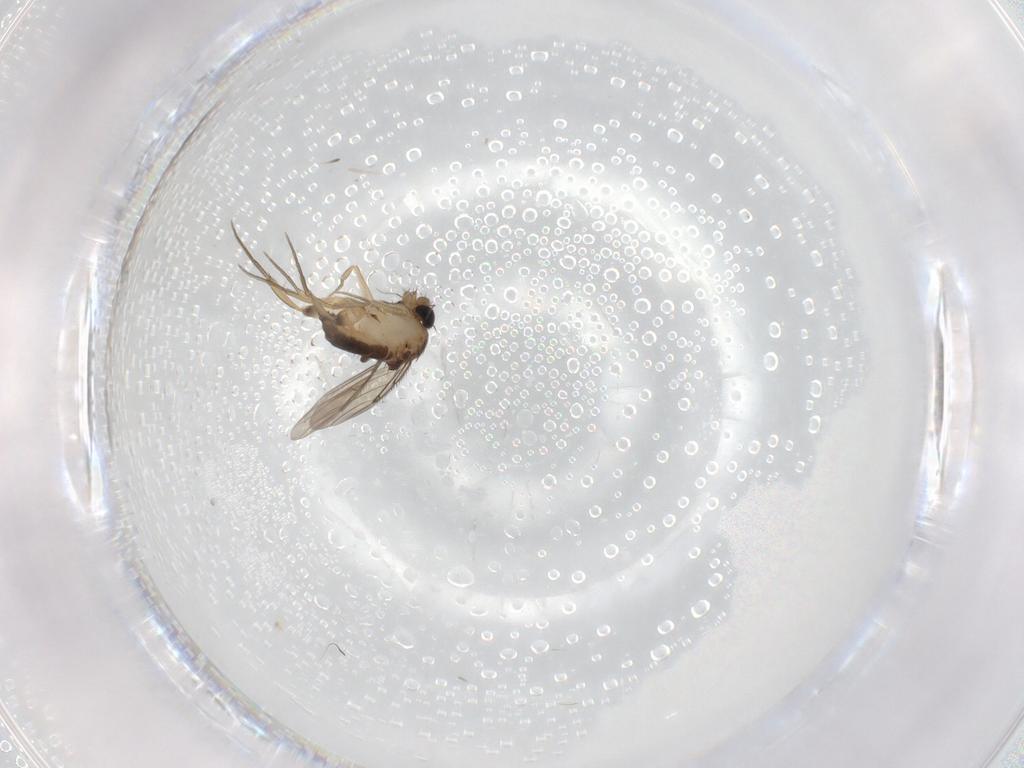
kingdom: Animalia
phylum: Arthropoda
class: Insecta
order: Diptera
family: Phoridae
